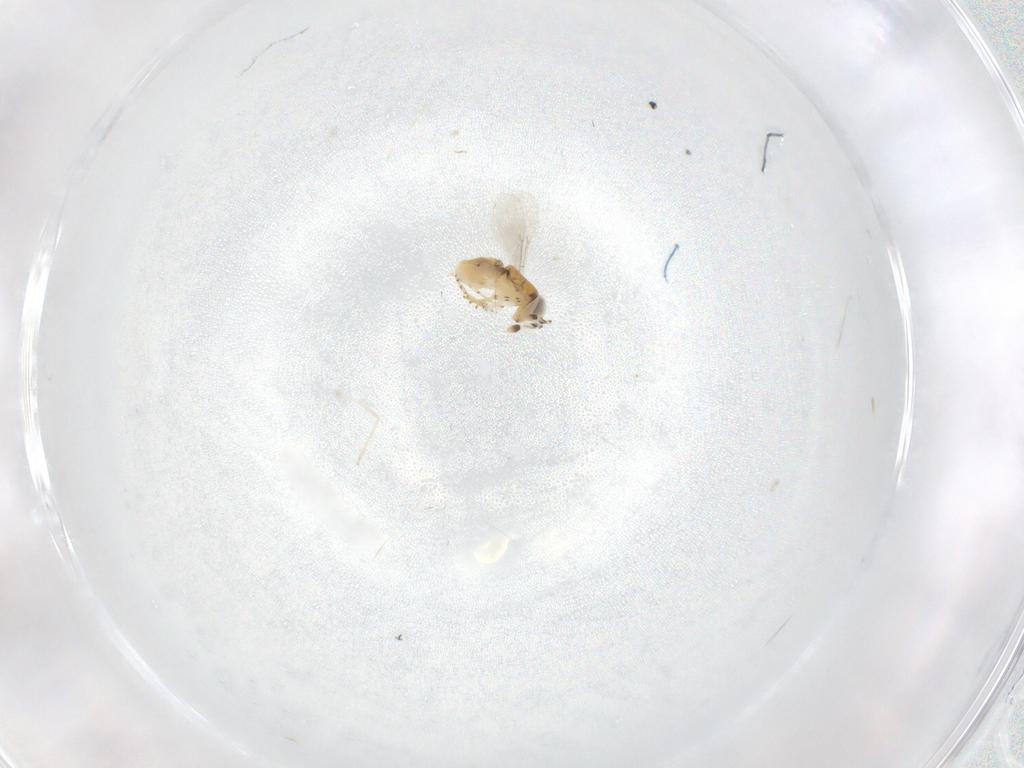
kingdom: Animalia
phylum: Arthropoda
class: Insecta
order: Hymenoptera
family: Encyrtidae
